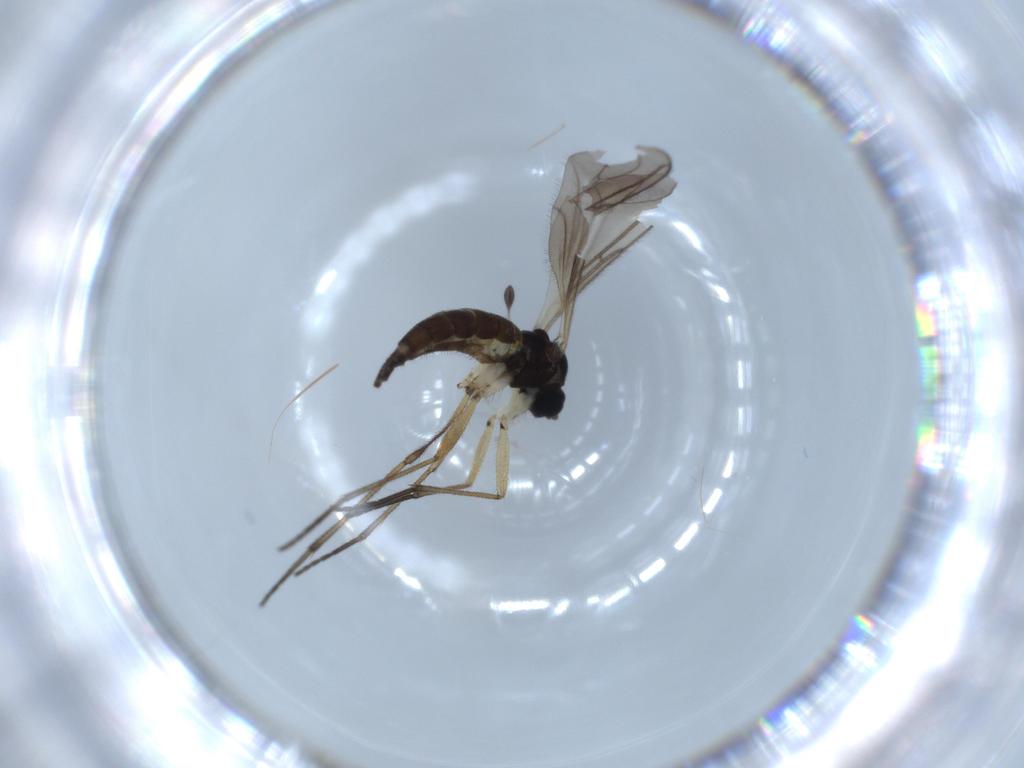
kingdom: Animalia
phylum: Arthropoda
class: Insecta
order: Diptera
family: Sciaridae
